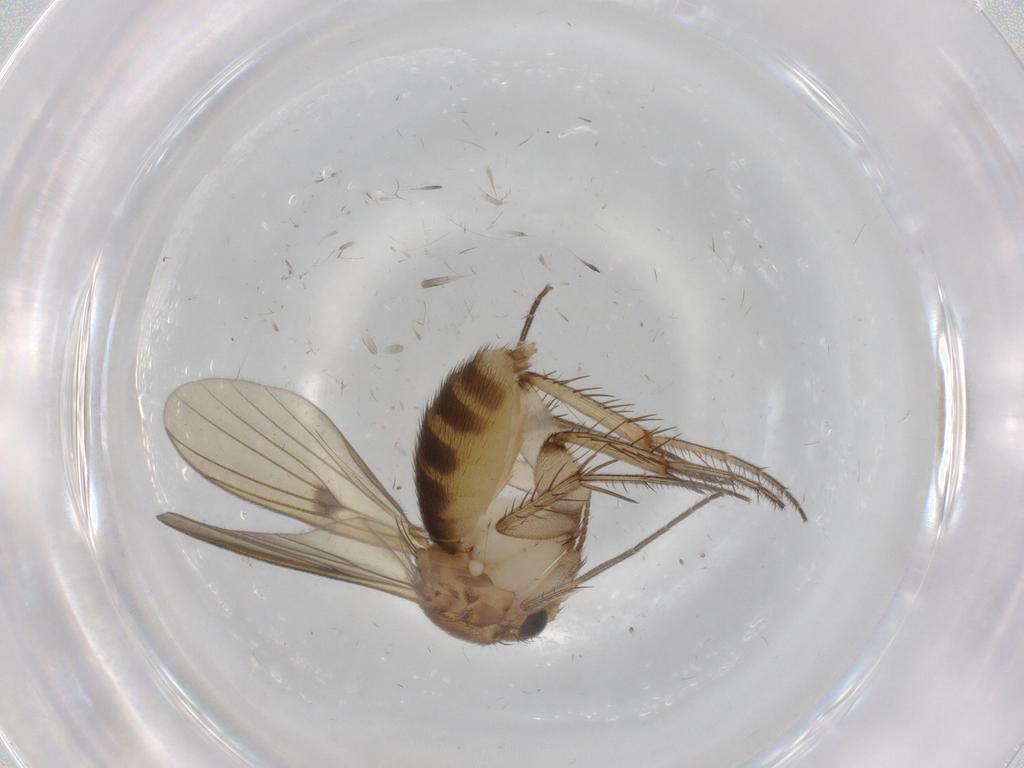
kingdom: Animalia
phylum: Arthropoda
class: Insecta
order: Diptera
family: Mycetophilidae
